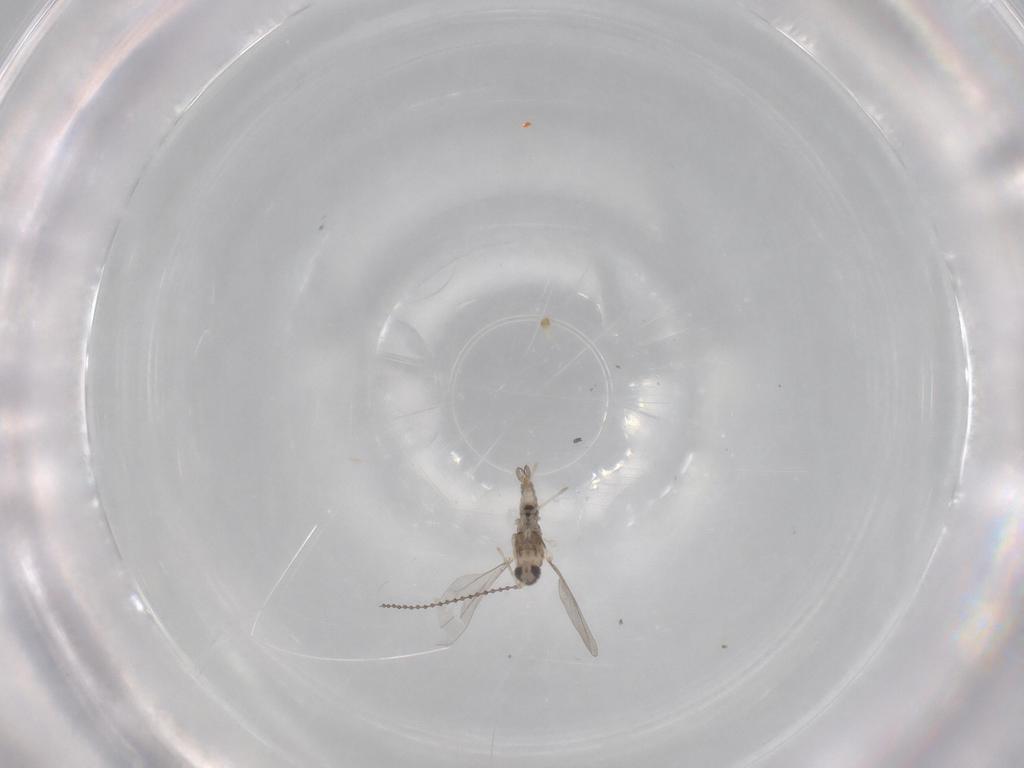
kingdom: Animalia
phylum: Arthropoda
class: Insecta
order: Diptera
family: Cecidomyiidae
